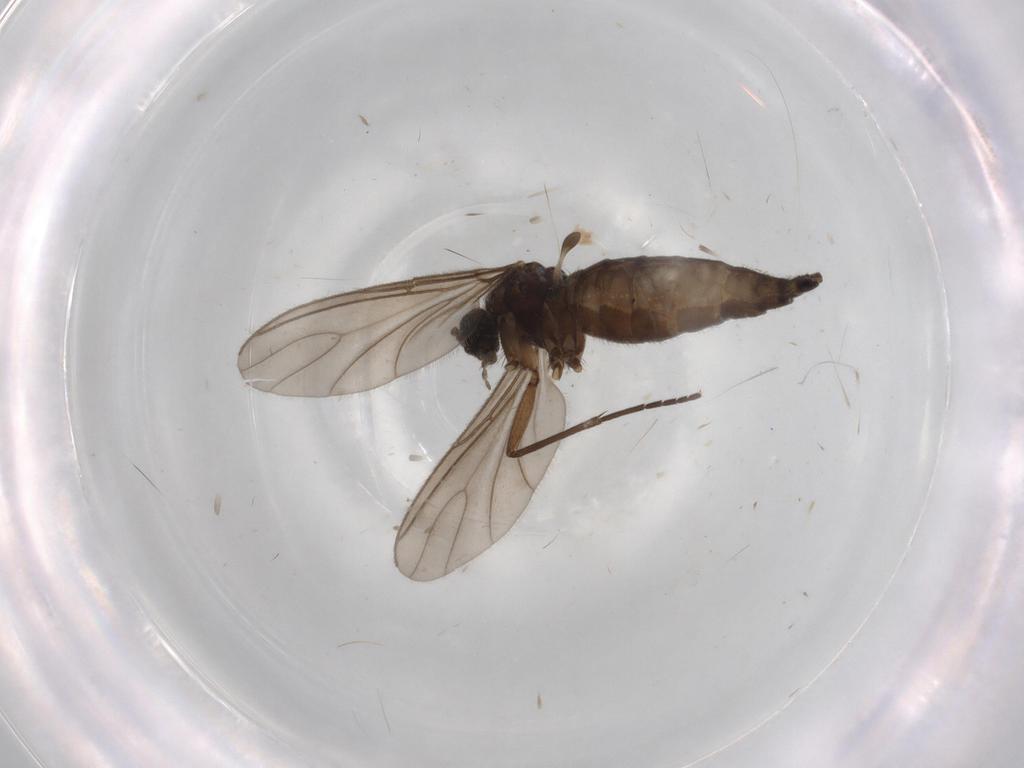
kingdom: Animalia
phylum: Arthropoda
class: Insecta
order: Diptera
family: Sciaridae
